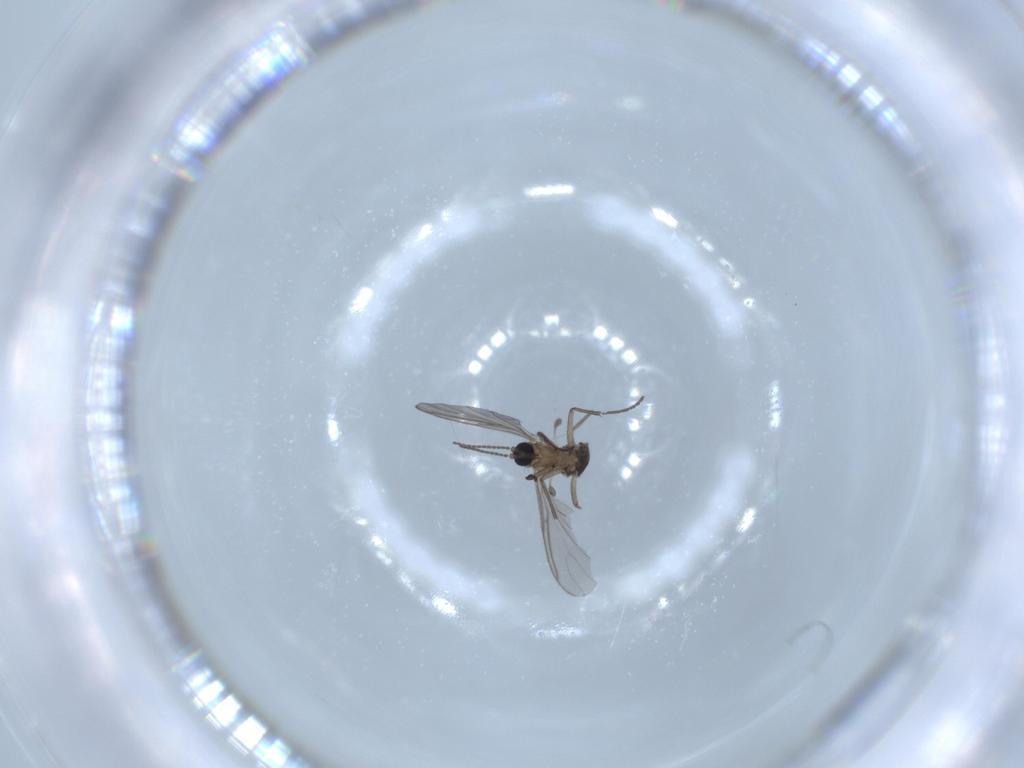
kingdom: Animalia
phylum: Arthropoda
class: Insecta
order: Diptera
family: Sciaridae
